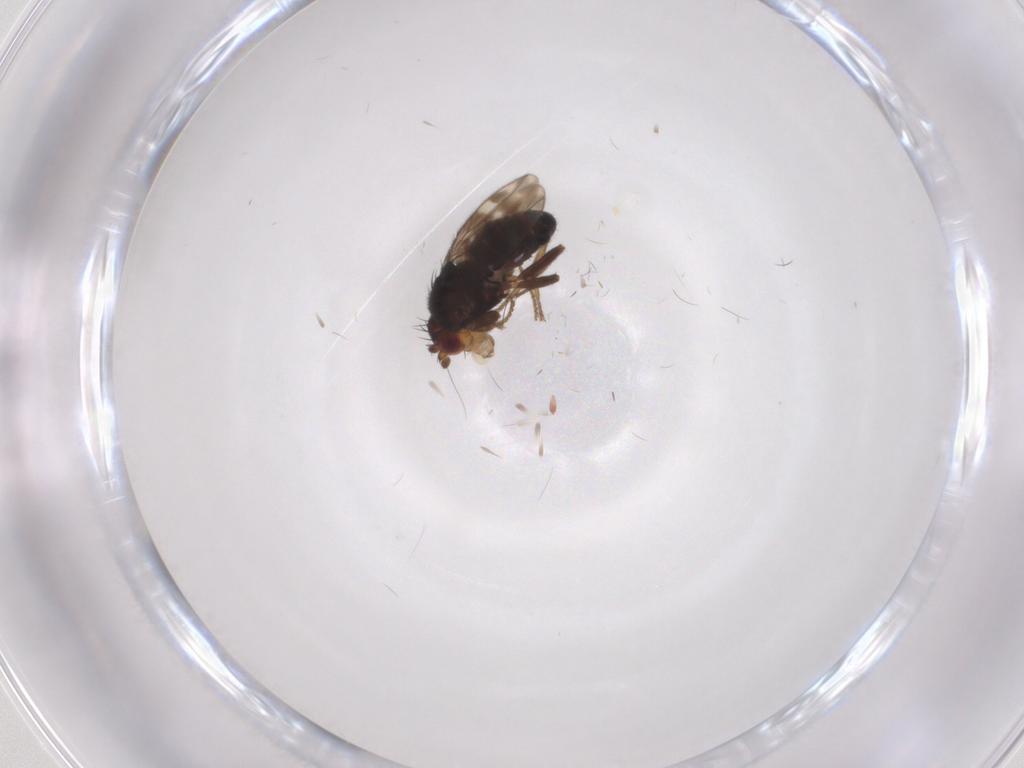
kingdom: Animalia
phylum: Arthropoda
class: Insecta
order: Diptera
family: Sphaeroceridae
